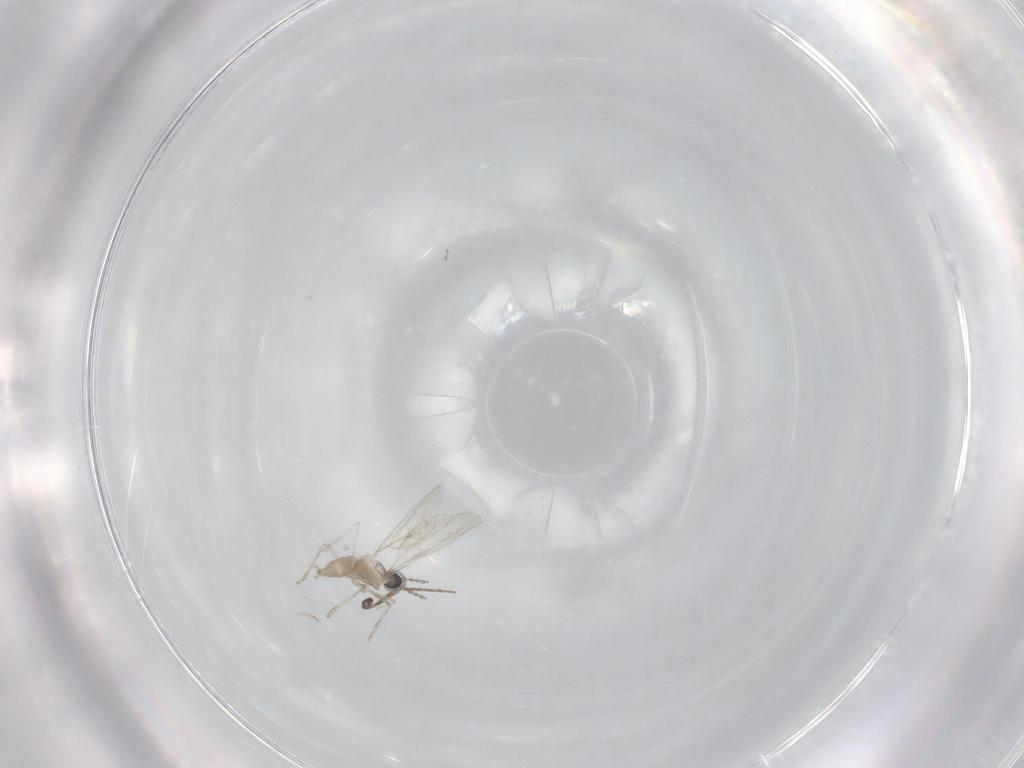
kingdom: Animalia
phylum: Arthropoda
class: Insecta
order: Diptera
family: Cecidomyiidae
